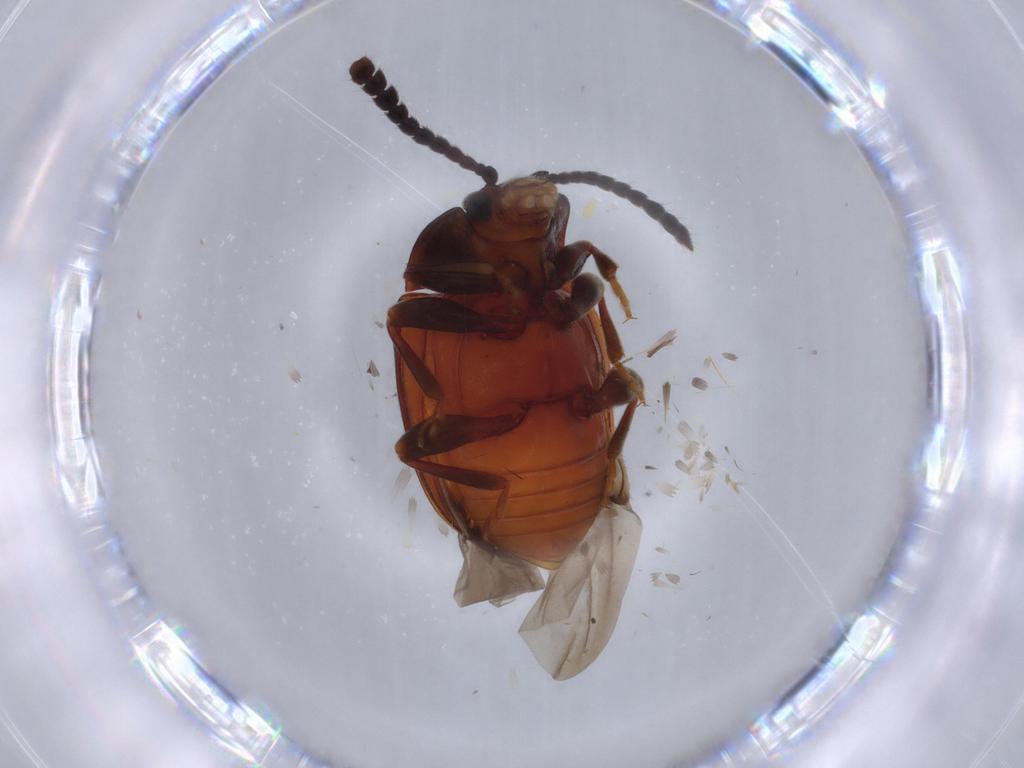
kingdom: Animalia
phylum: Arthropoda
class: Insecta
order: Coleoptera
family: Endomychidae
